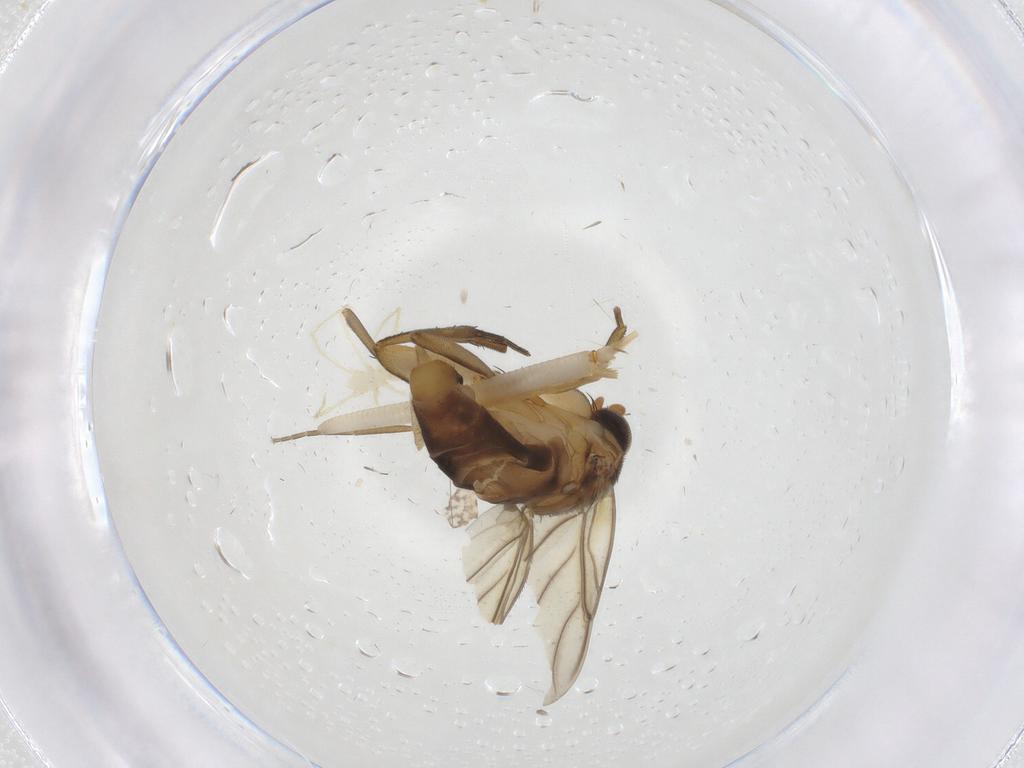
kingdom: Animalia
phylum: Arthropoda
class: Insecta
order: Diptera
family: Phoridae
